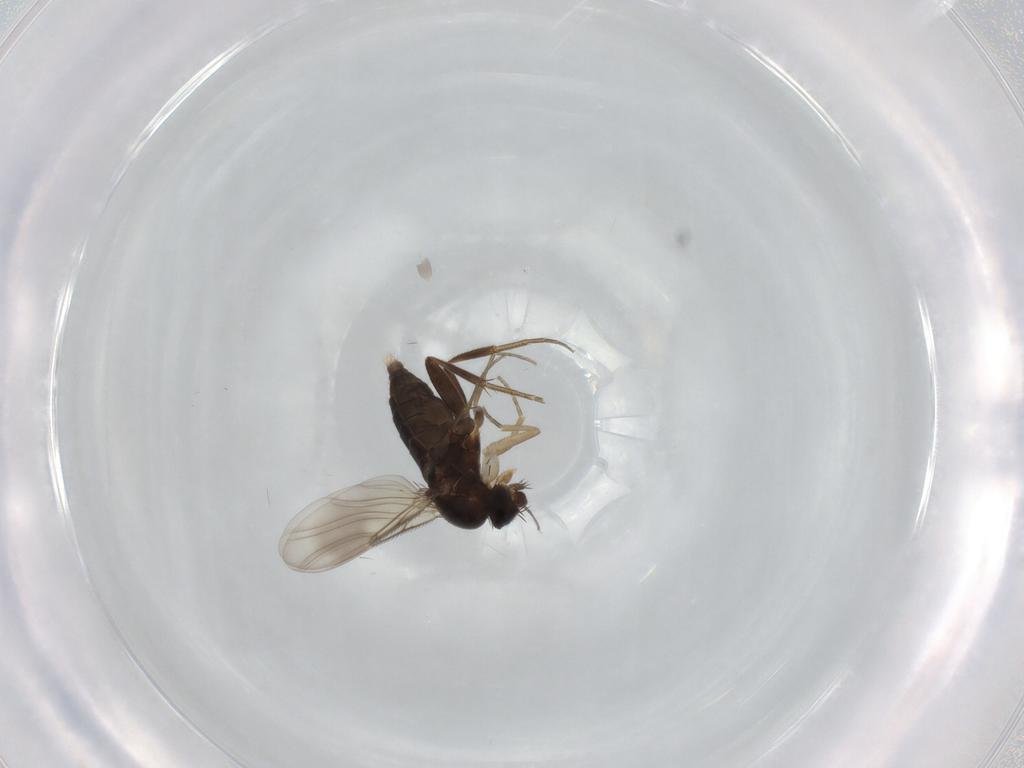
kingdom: Animalia
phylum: Arthropoda
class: Insecta
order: Diptera
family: Phoridae
